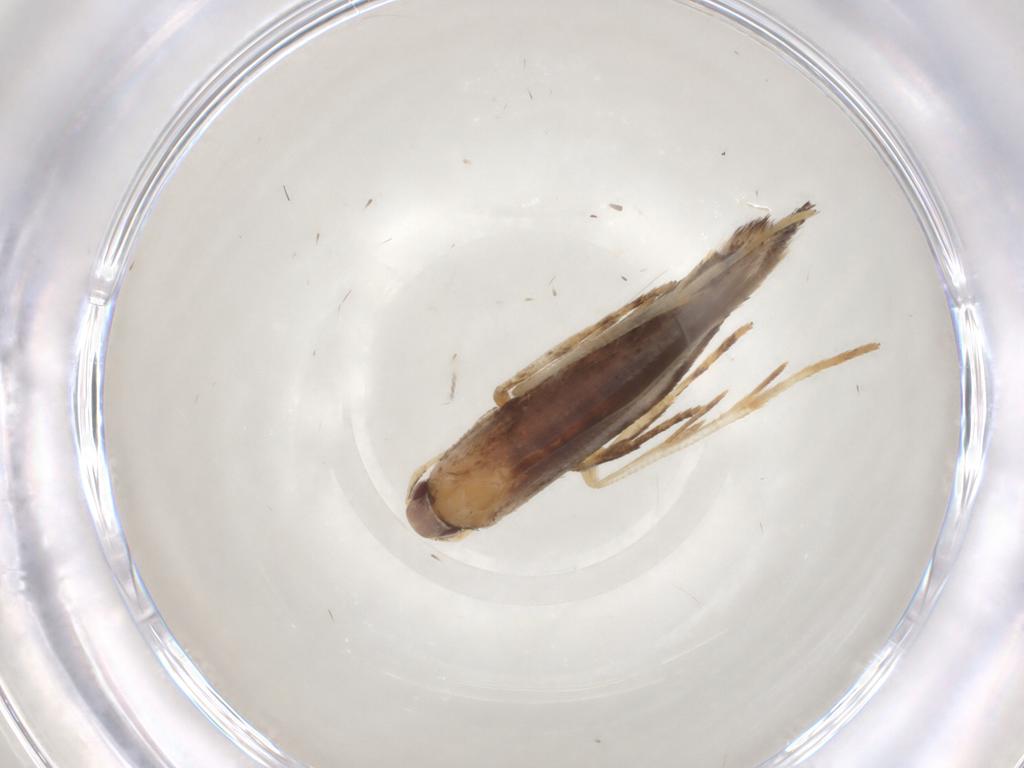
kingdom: Animalia
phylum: Arthropoda
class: Insecta
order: Lepidoptera
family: Cosmopterigidae
